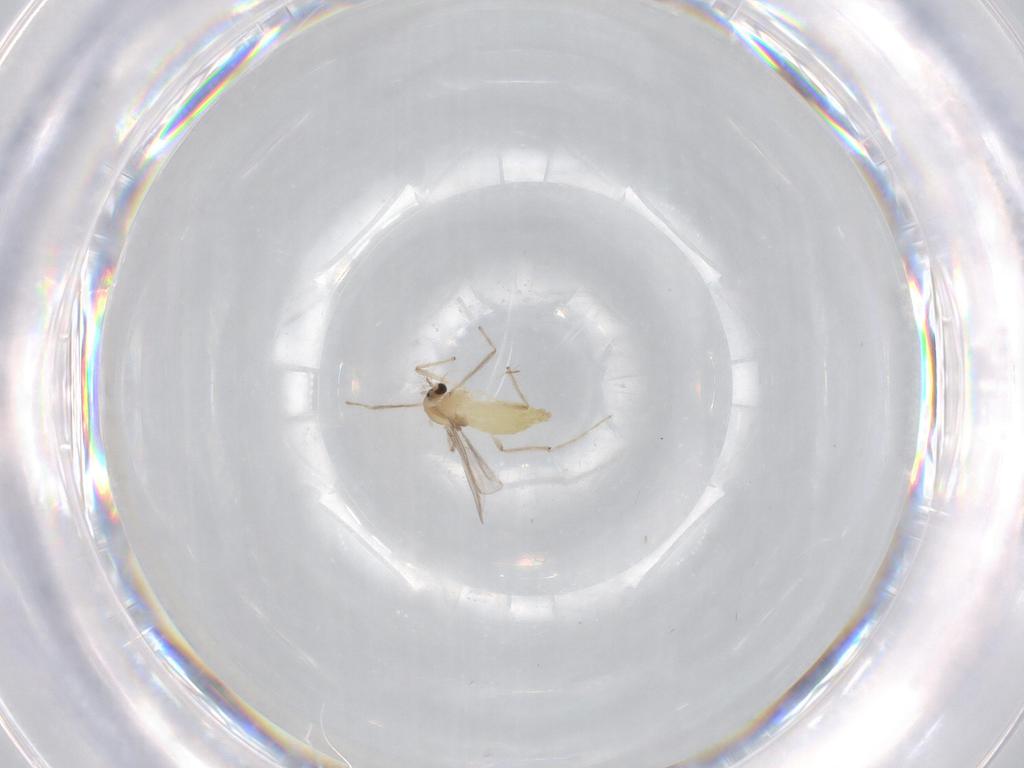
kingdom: Animalia
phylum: Arthropoda
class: Insecta
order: Diptera
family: Chironomidae
